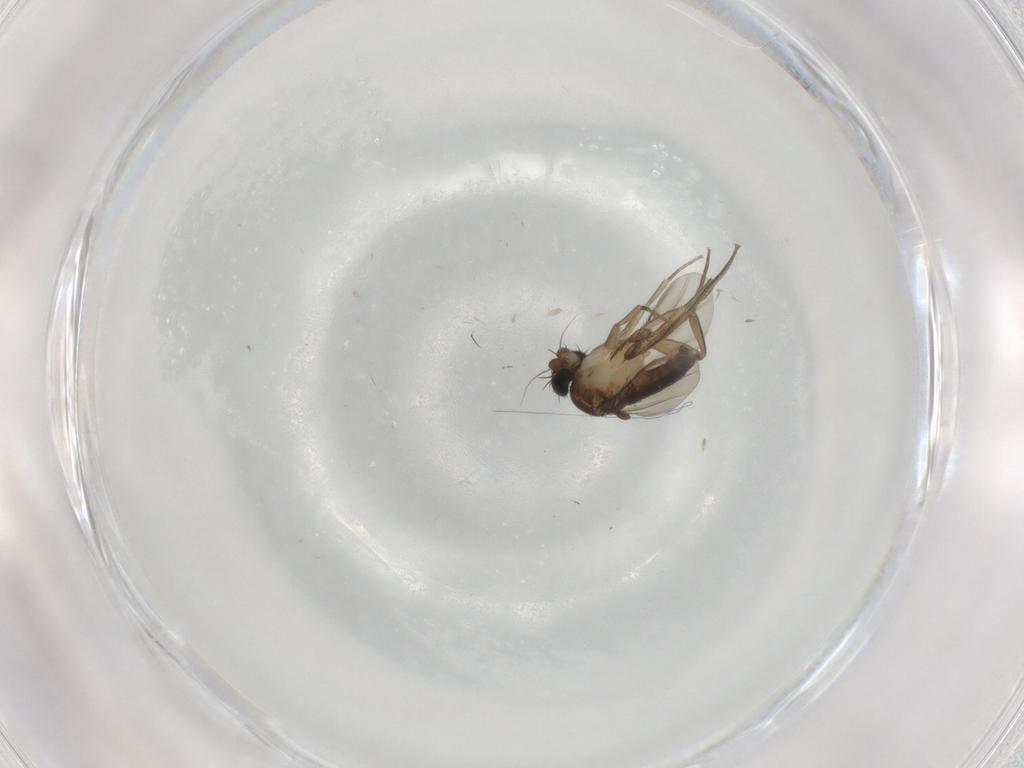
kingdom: Animalia
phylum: Arthropoda
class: Insecta
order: Diptera
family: Phoridae
